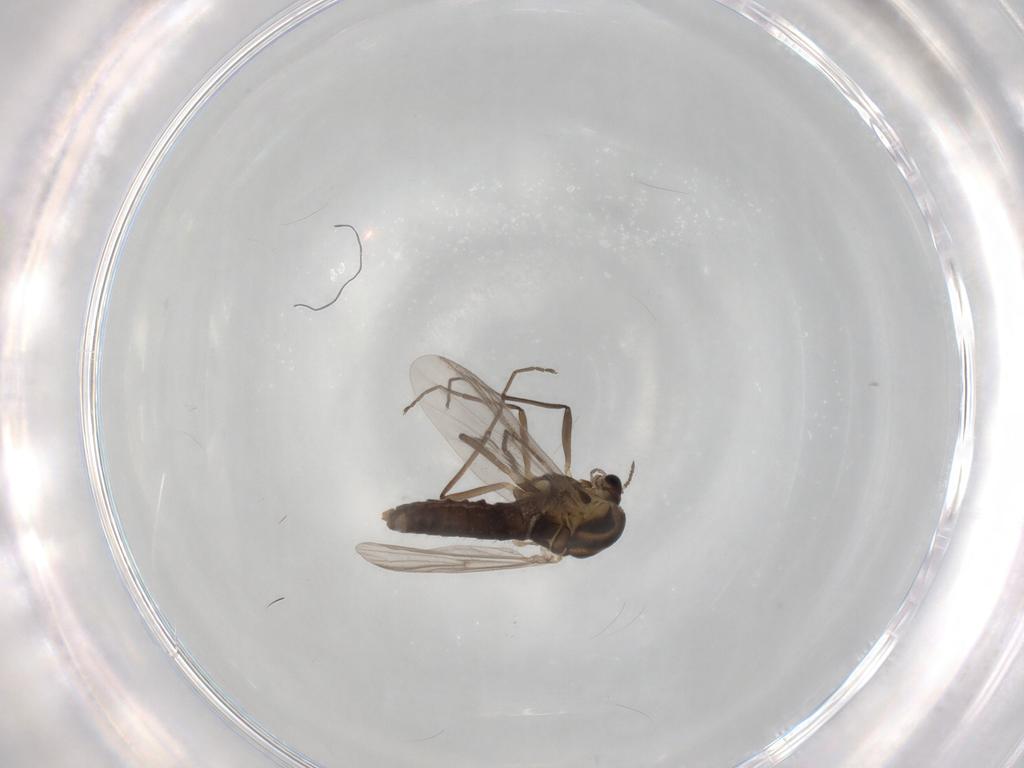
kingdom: Animalia
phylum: Arthropoda
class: Insecta
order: Diptera
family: Chironomidae
